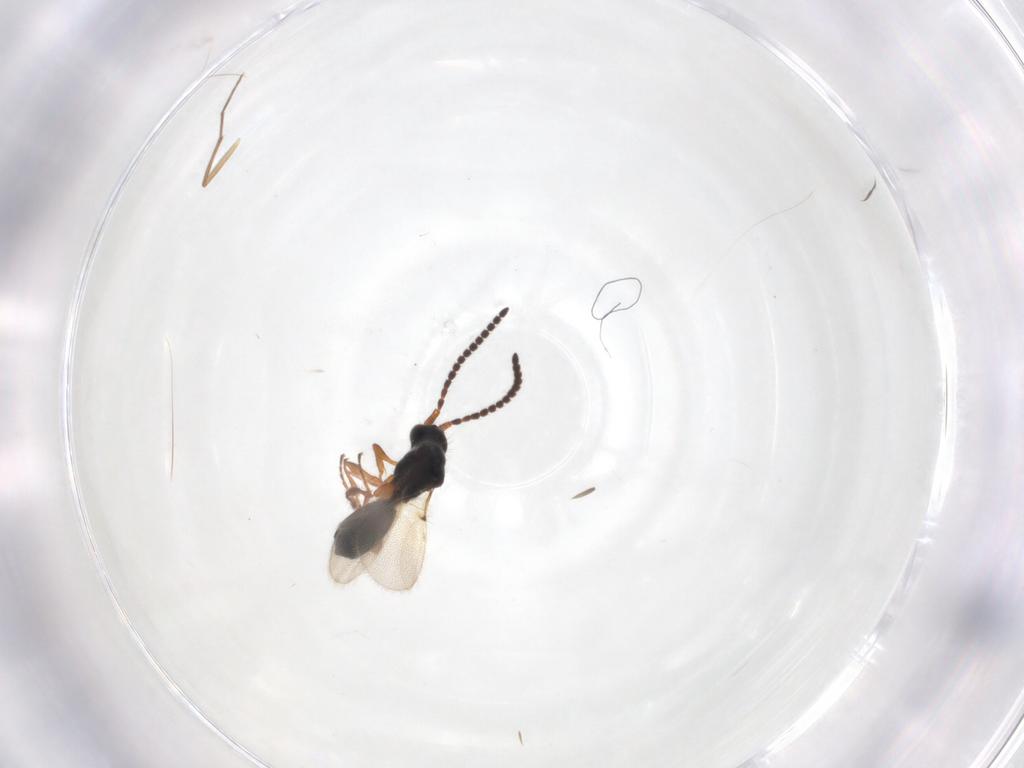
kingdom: Animalia
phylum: Arthropoda
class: Insecta
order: Hymenoptera
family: Diapriidae
